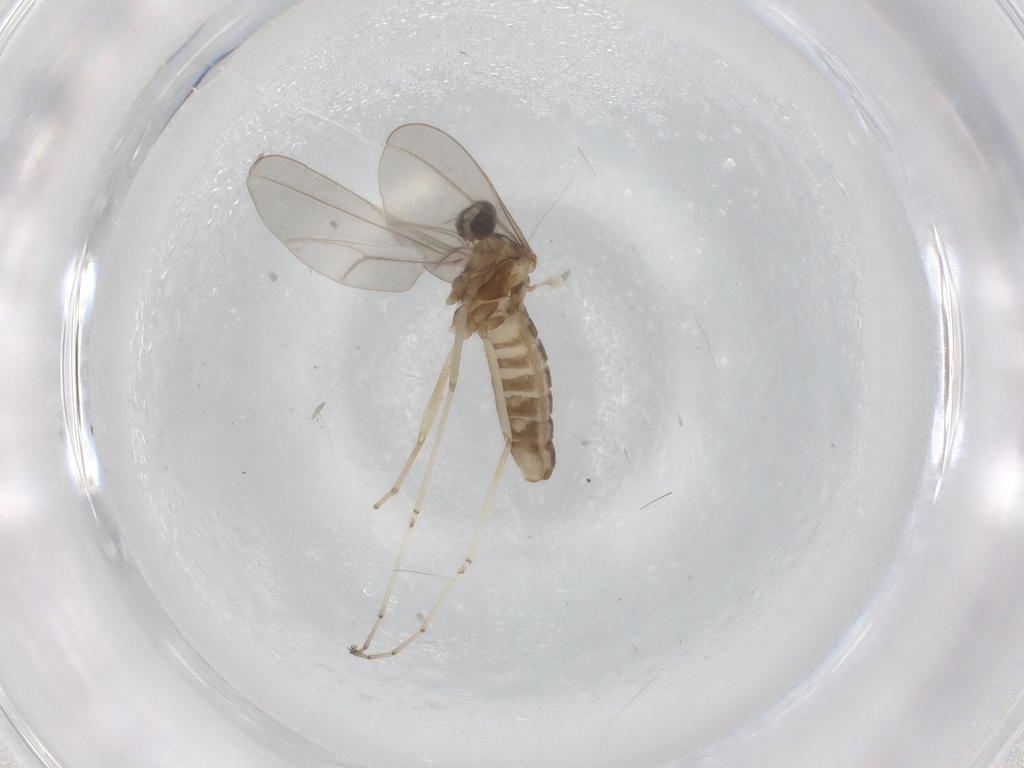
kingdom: Animalia
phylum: Arthropoda
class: Insecta
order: Diptera
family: Cecidomyiidae
